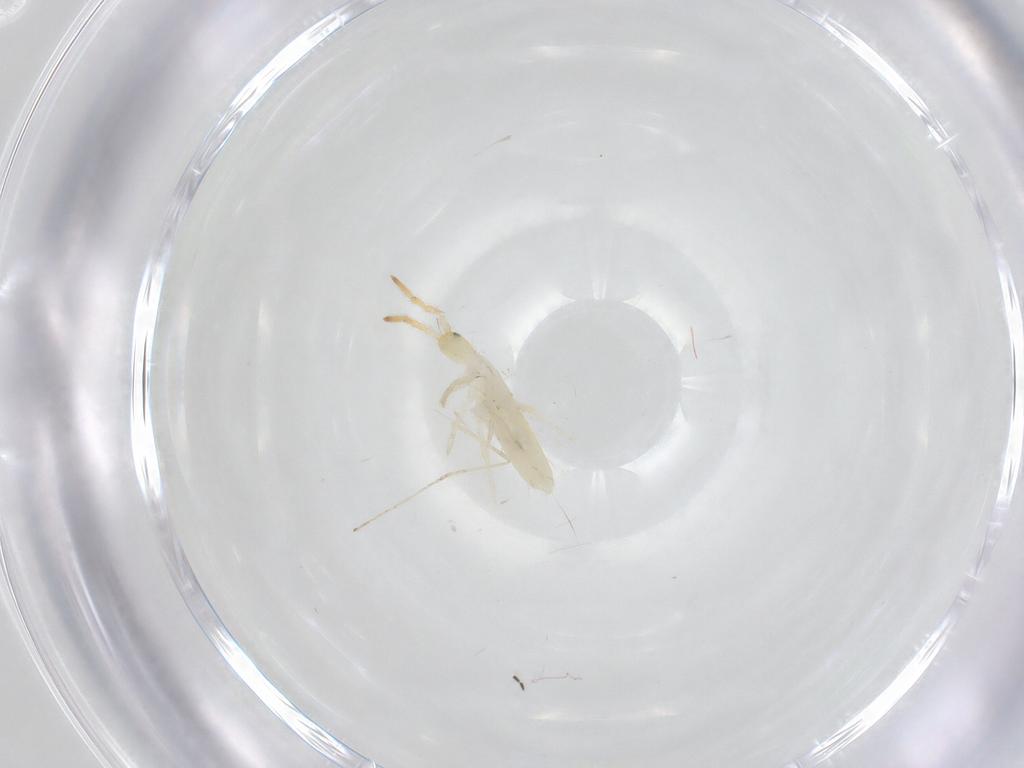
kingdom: Animalia
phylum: Arthropoda
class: Collembola
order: Entomobryomorpha
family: Entomobryidae
